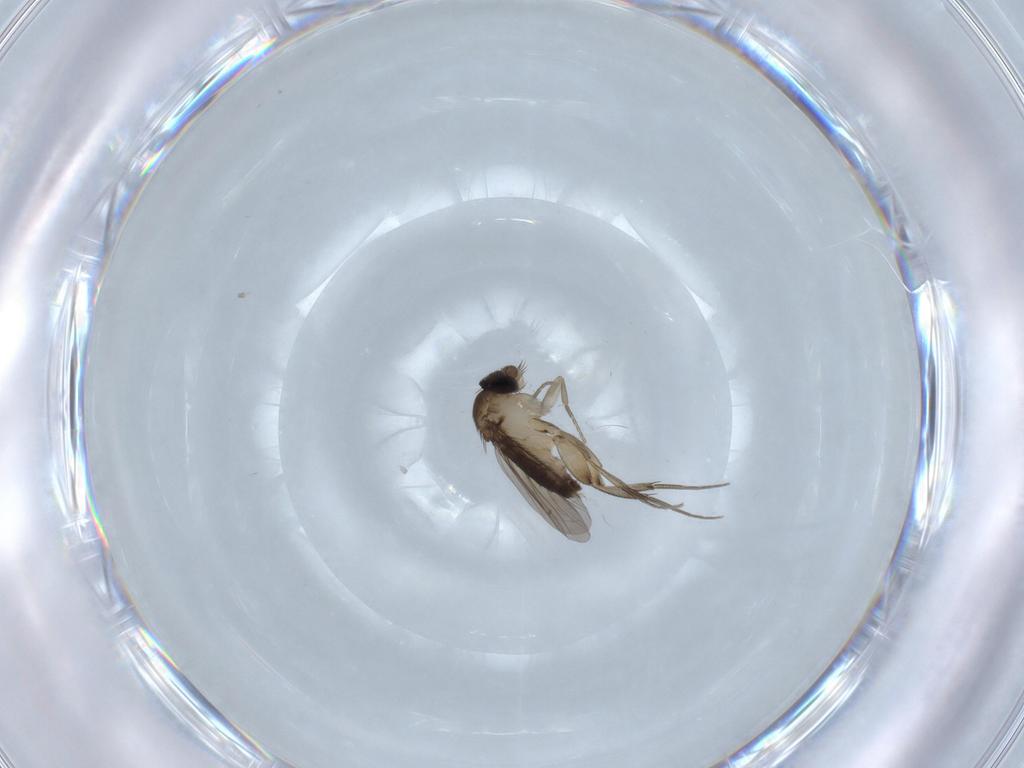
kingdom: Animalia
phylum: Arthropoda
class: Insecta
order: Diptera
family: Phoridae
